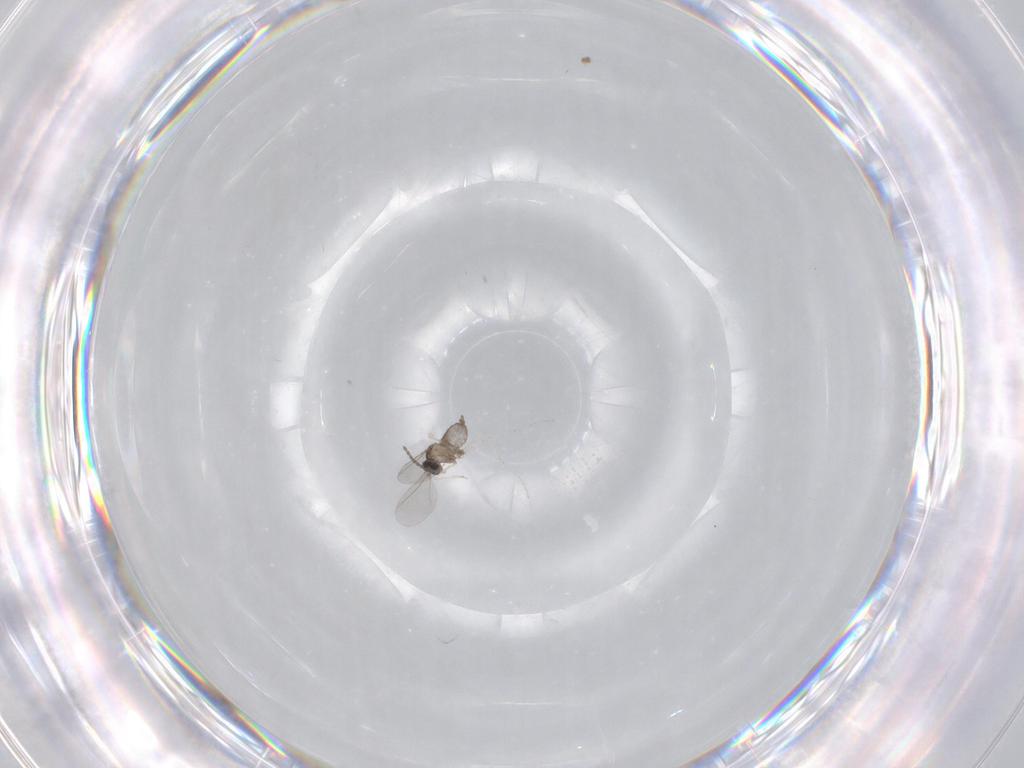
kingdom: Animalia
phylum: Arthropoda
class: Insecta
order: Diptera
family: Cecidomyiidae
